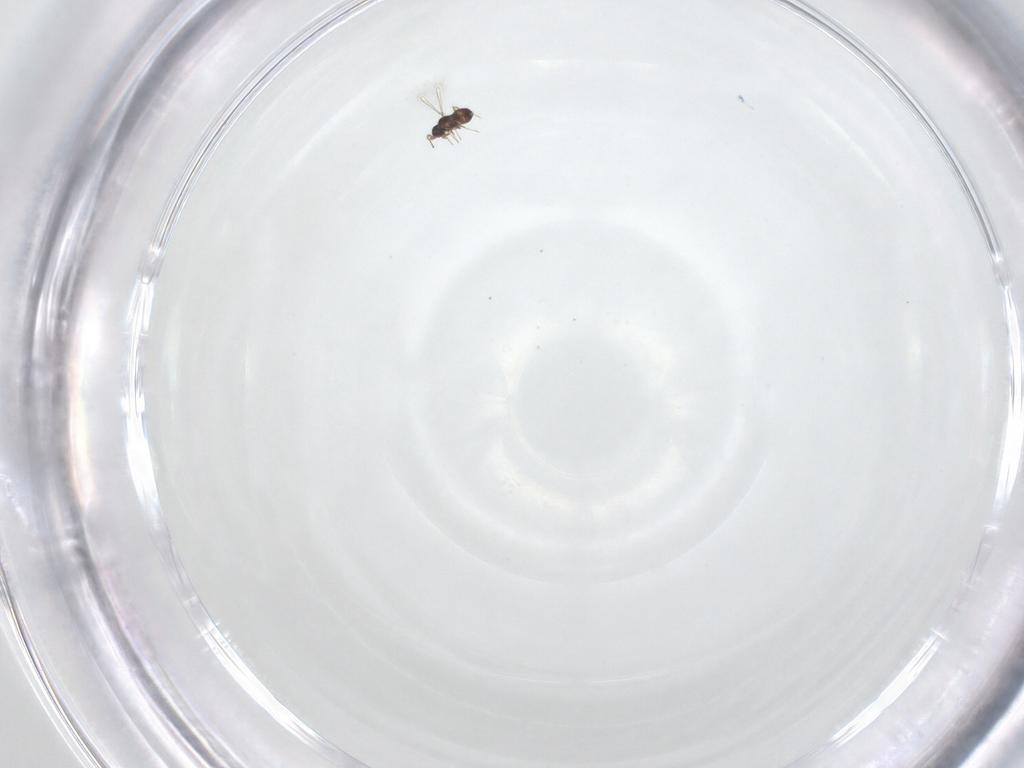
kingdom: Animalia
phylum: Arthropoda
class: Insecta
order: Hymenoptera
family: Mymaridae
